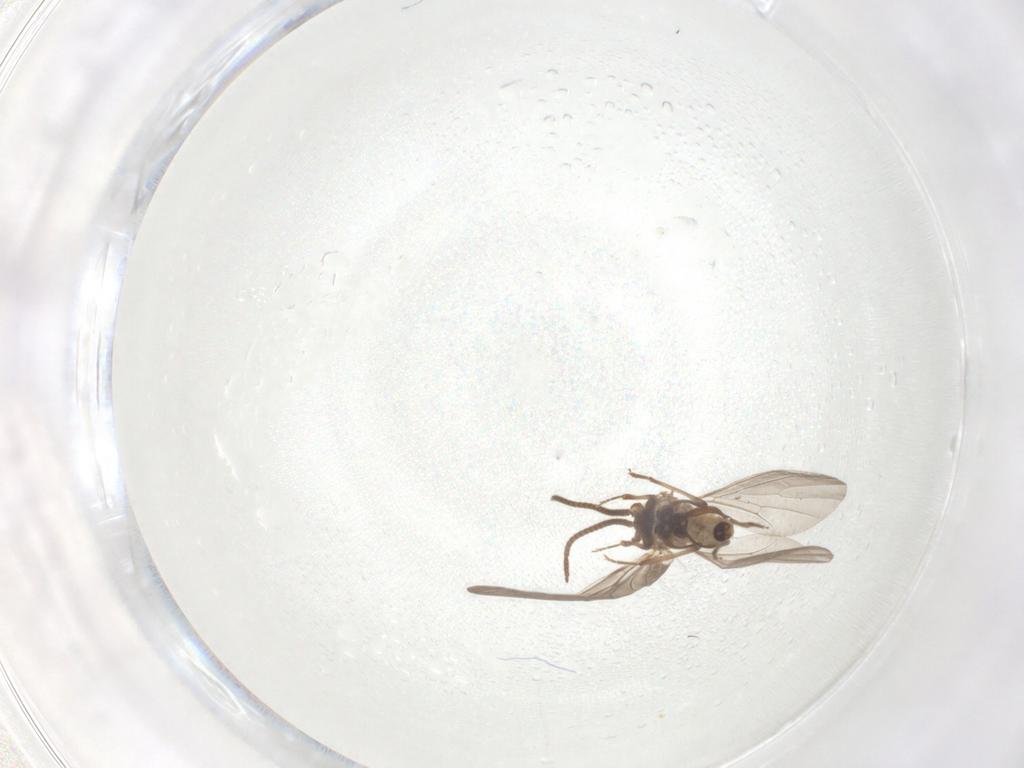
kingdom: Animalia
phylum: Arthropoda
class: Insecta
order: Neuroptera
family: Coniopterygidae
